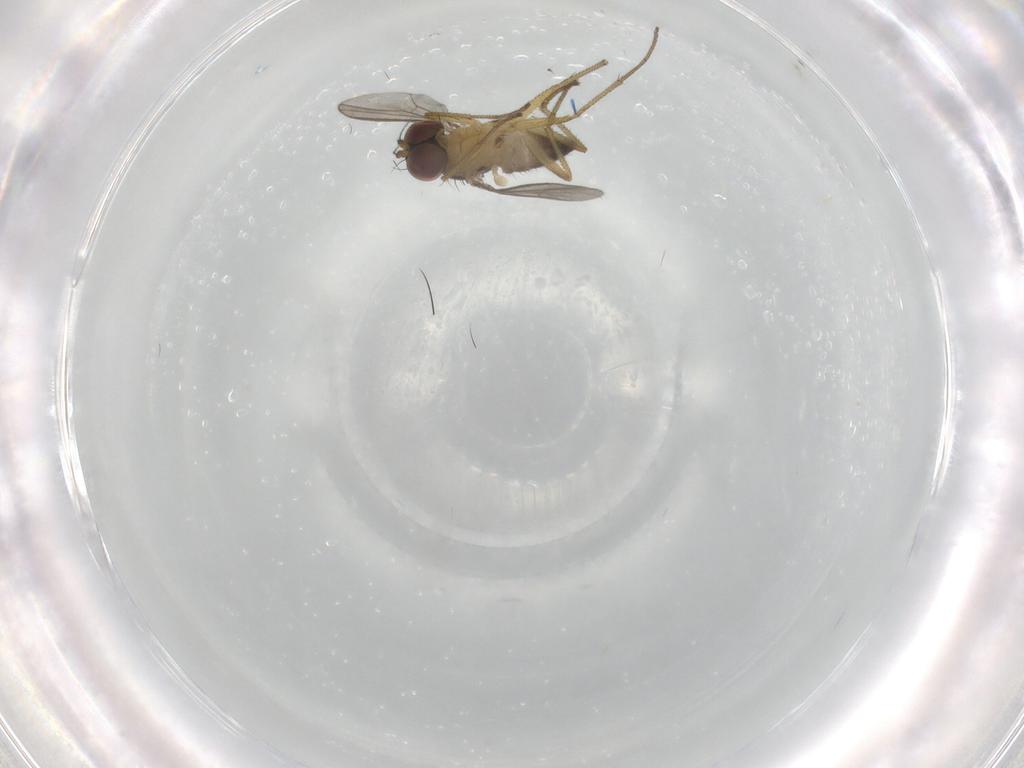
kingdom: Animalia
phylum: Arthropoda
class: Insecta
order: Diptera
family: Dolichopodidae
